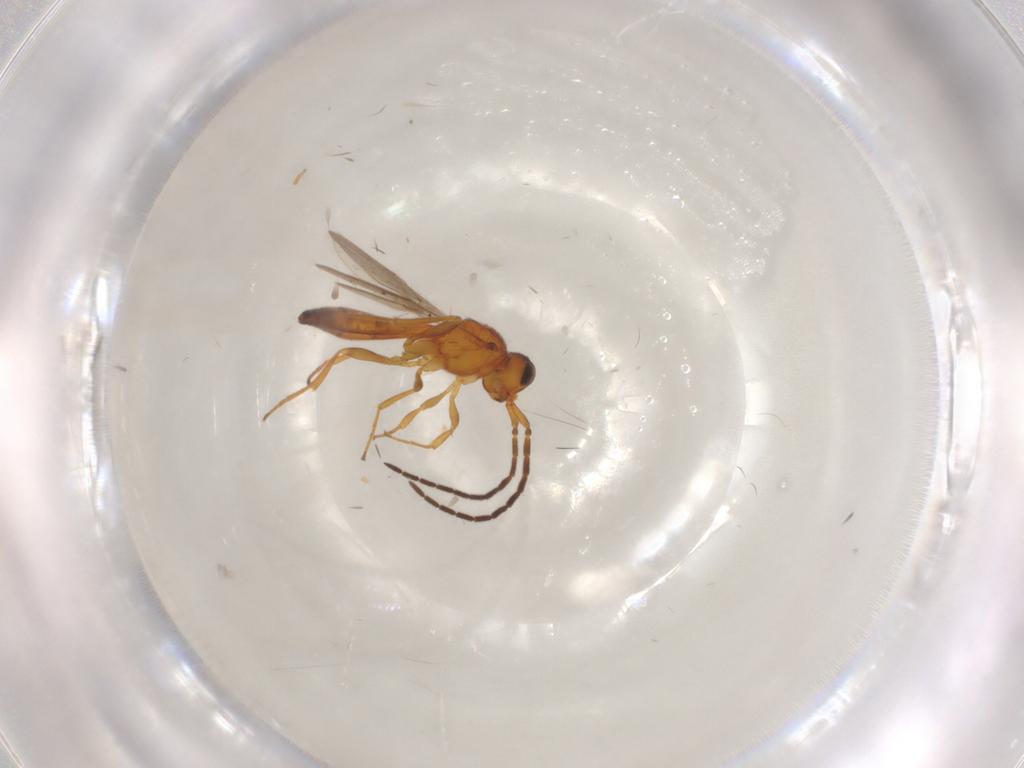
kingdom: Animalia
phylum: Arthropoda
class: Insecta
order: Hymenoptera
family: Scelionidae
